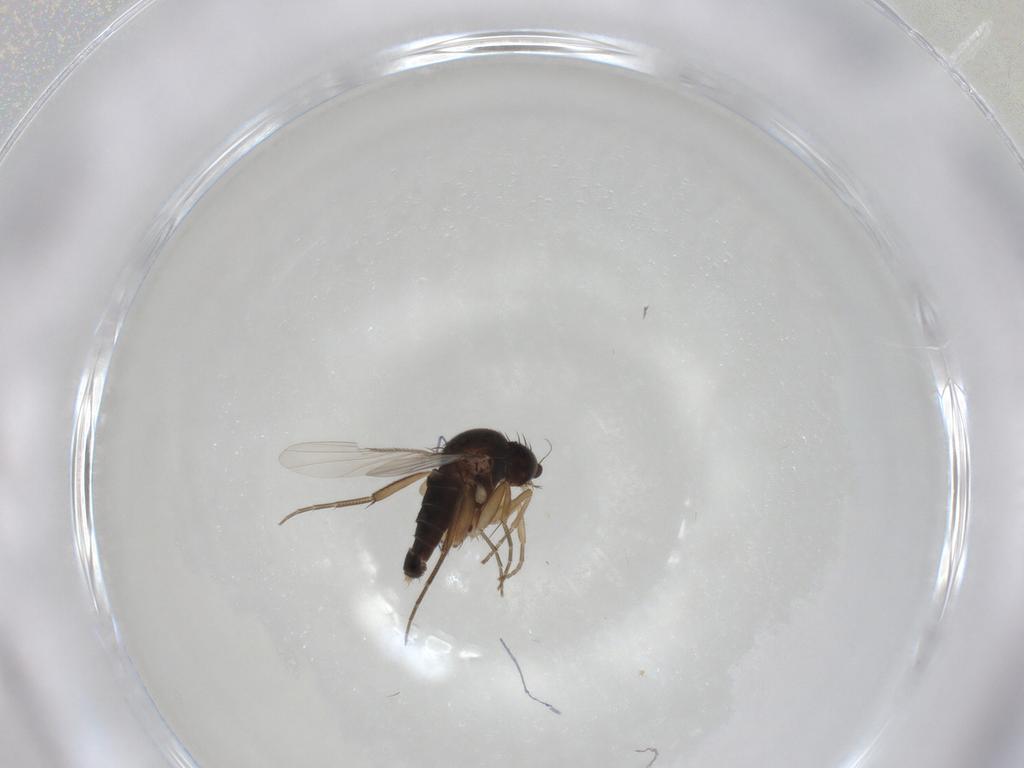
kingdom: Animalia
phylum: Arthropoda
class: Insecta
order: Diptera
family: Phoridae
